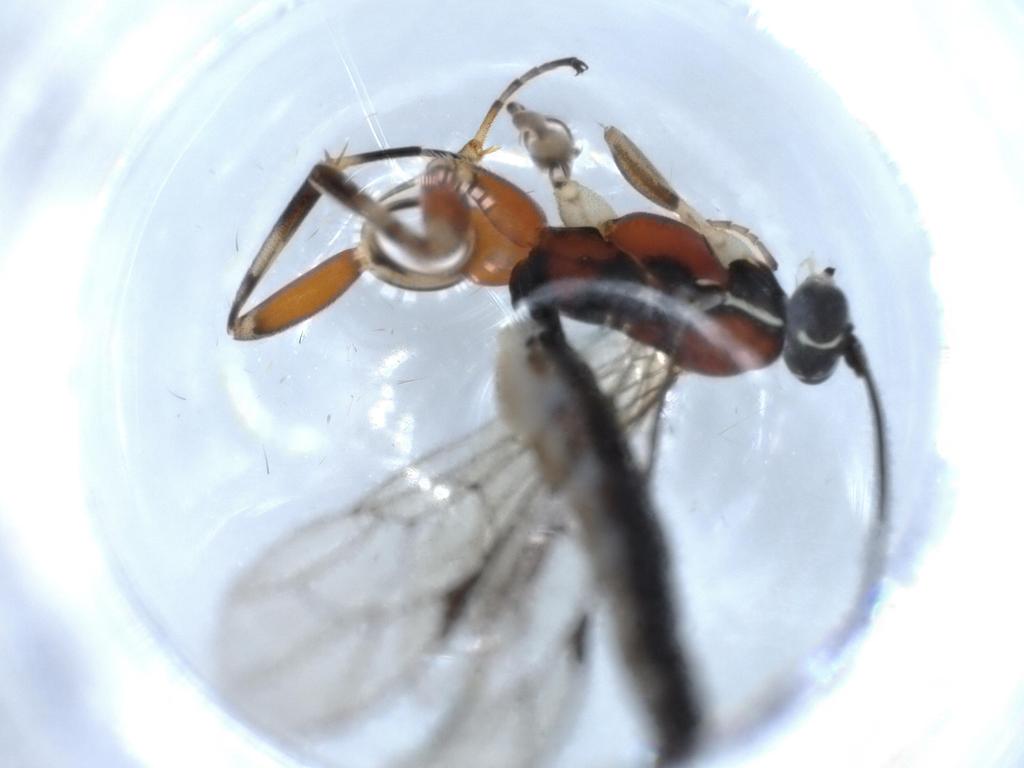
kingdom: Animalia
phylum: Arthropoda
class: Insecta
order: Hymenoptera
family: Ichneumonidae
